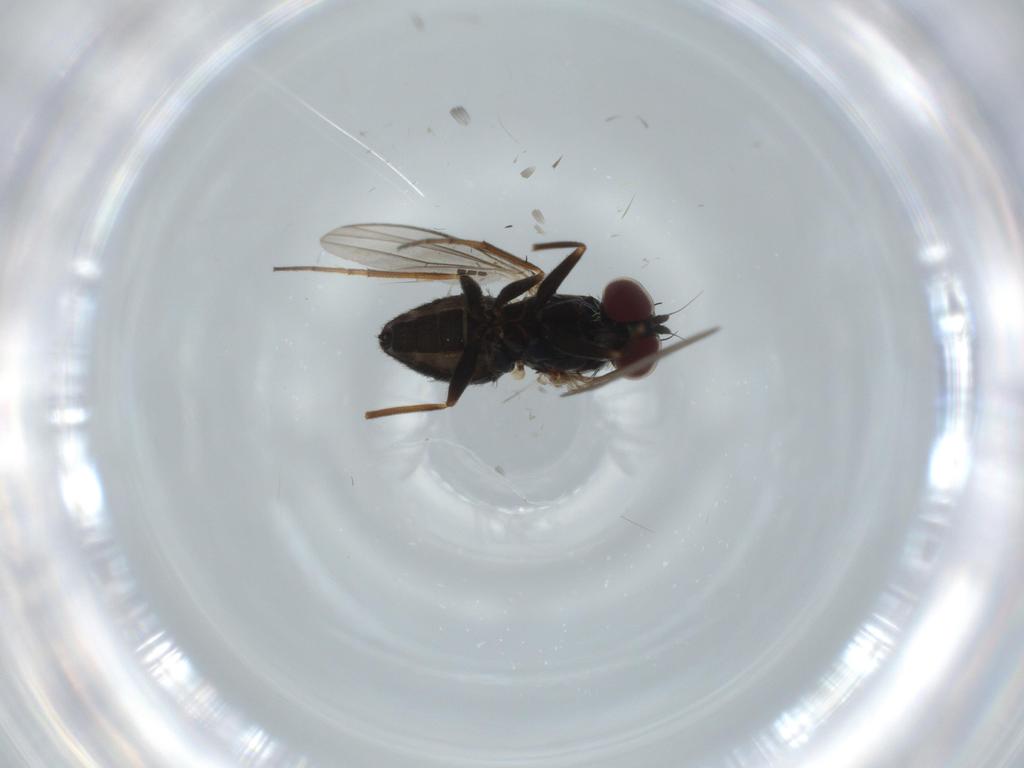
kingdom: Animalia
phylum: Arthropoda
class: Insecta
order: Diptera
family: Dolichopodidae
